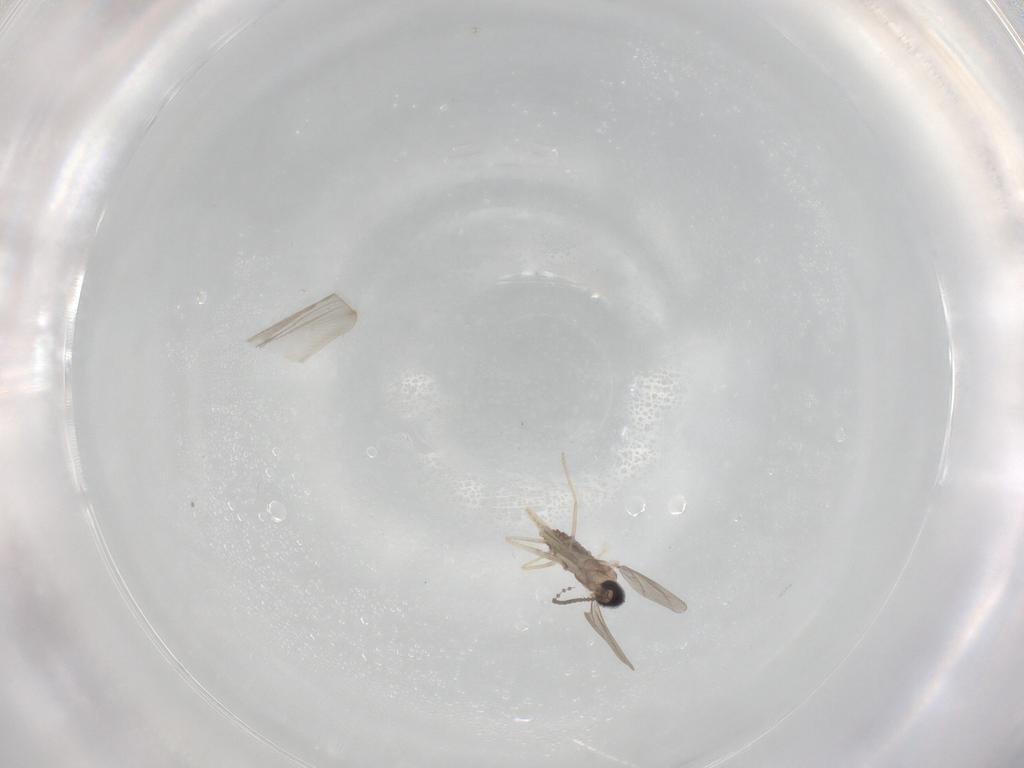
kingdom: Animalia
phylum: Arthropoda
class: Insecta
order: Diptera
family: Cecidomyiidae
